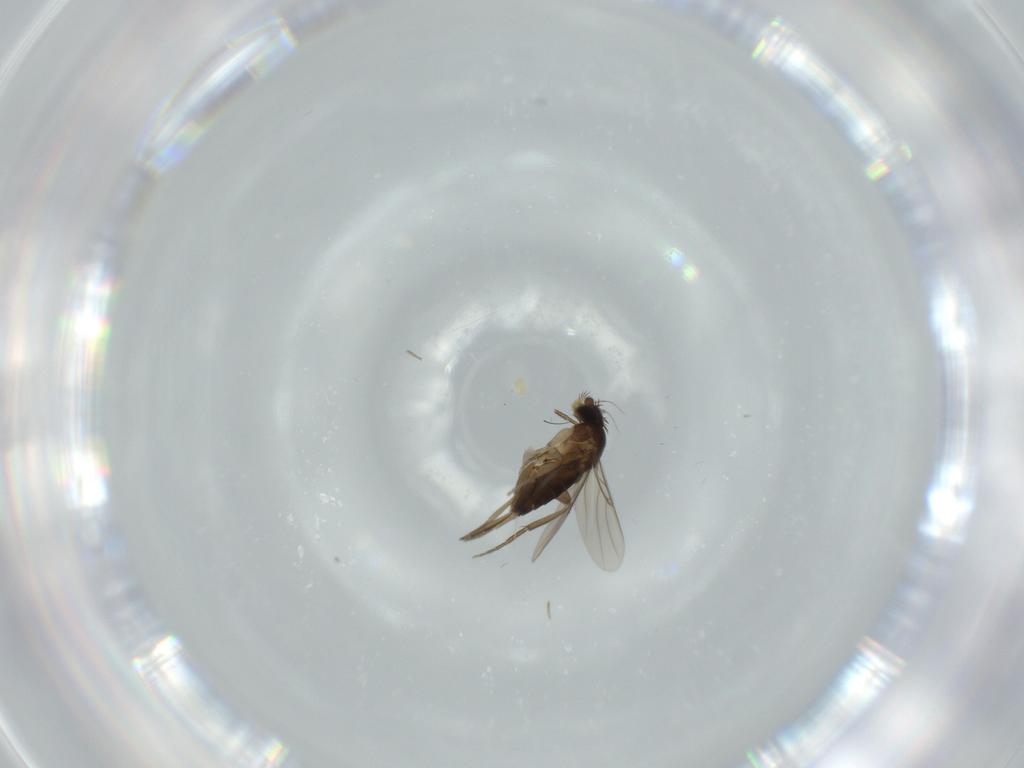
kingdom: Animalia
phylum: Arthropoda
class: Insecta
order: Diptera
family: Phoridae
